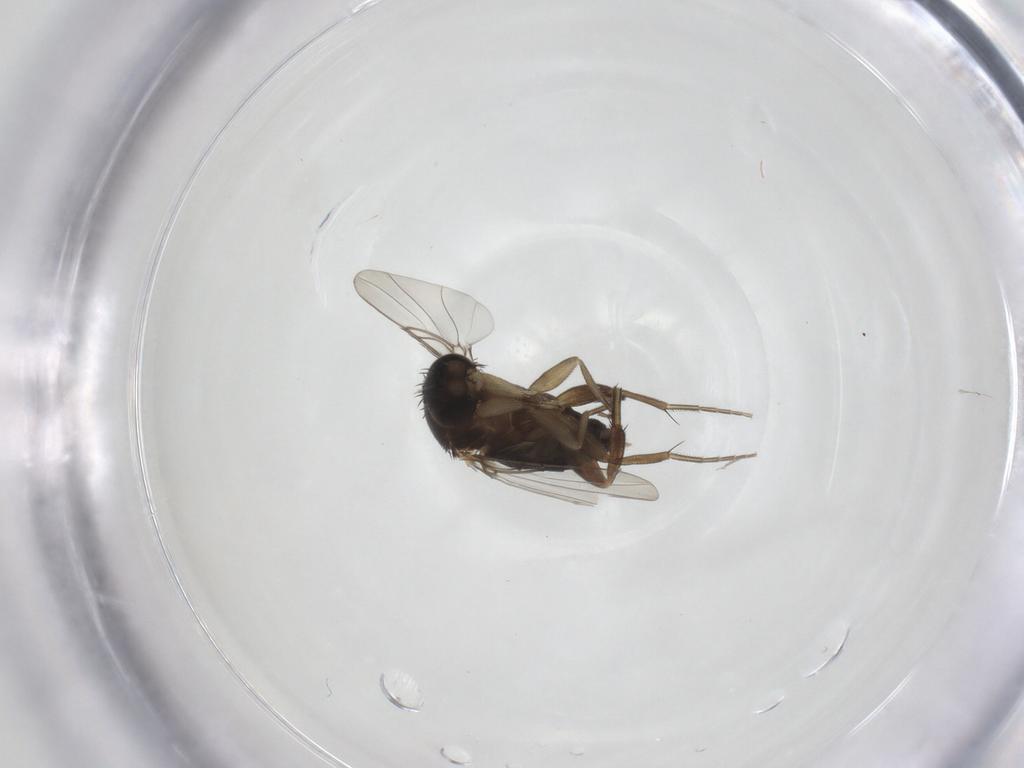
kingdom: Animalia
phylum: Arthropoda
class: Insecta
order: Diptera
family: Phoridae
